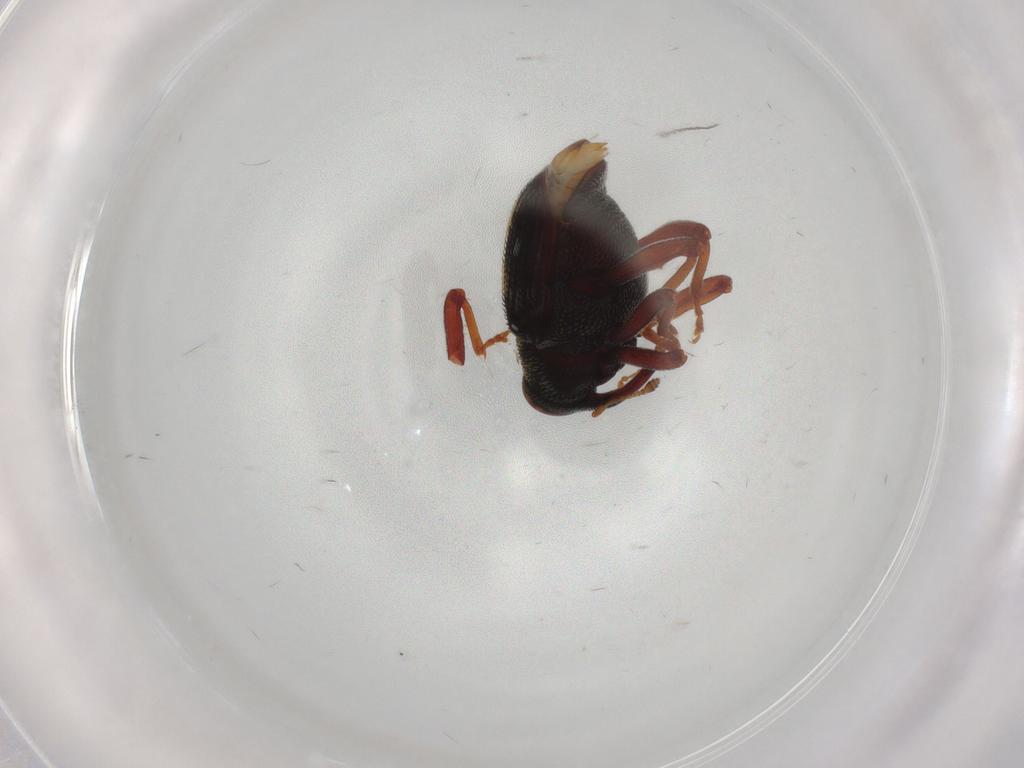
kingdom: Animalia
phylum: Arthropoda
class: Insecta
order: Coleoptera
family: Curculionidae
